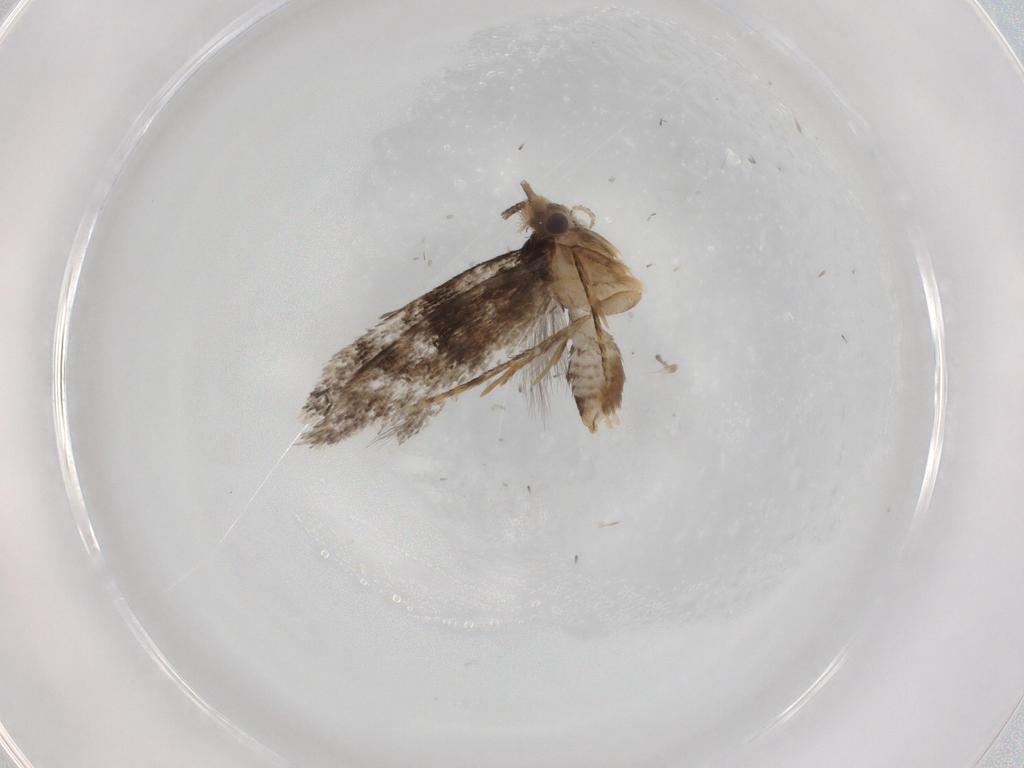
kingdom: Animalia
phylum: Arthropoda
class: Insecta
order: Lepidoptera
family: Tineidae
